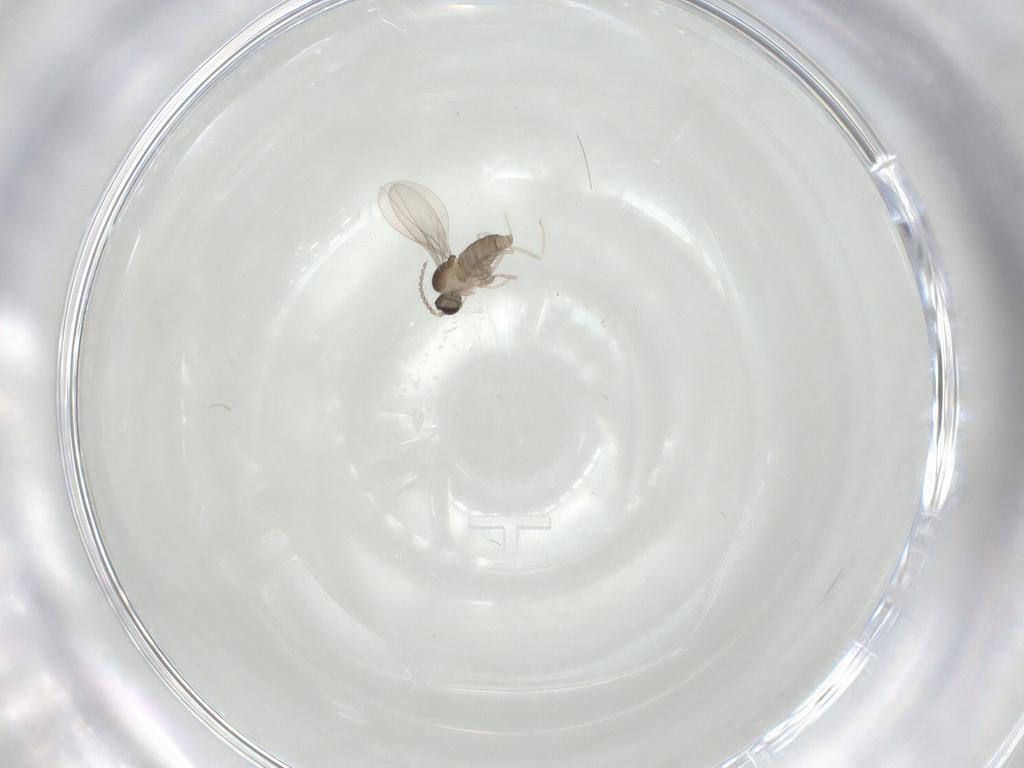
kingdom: Animalia
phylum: Arthropoda
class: Insecta
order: Diptera
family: Cecidomyiidae
